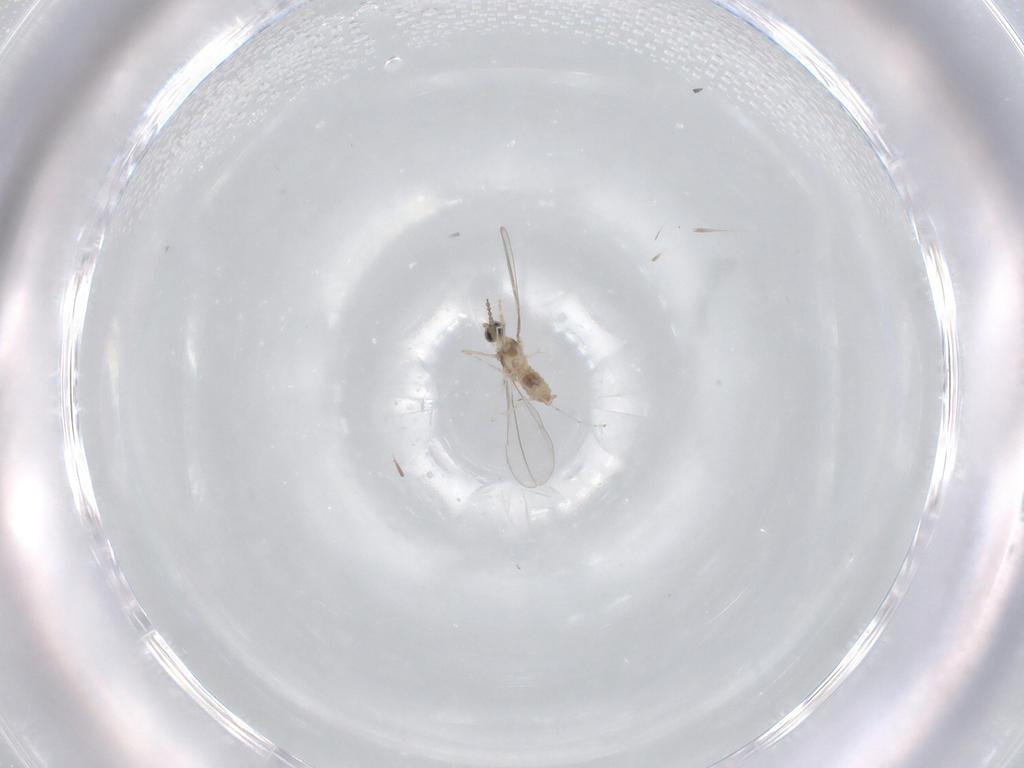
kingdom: Animalia
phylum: Arthropoda
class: Insecta
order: Diptera
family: Cecidomyiidae
